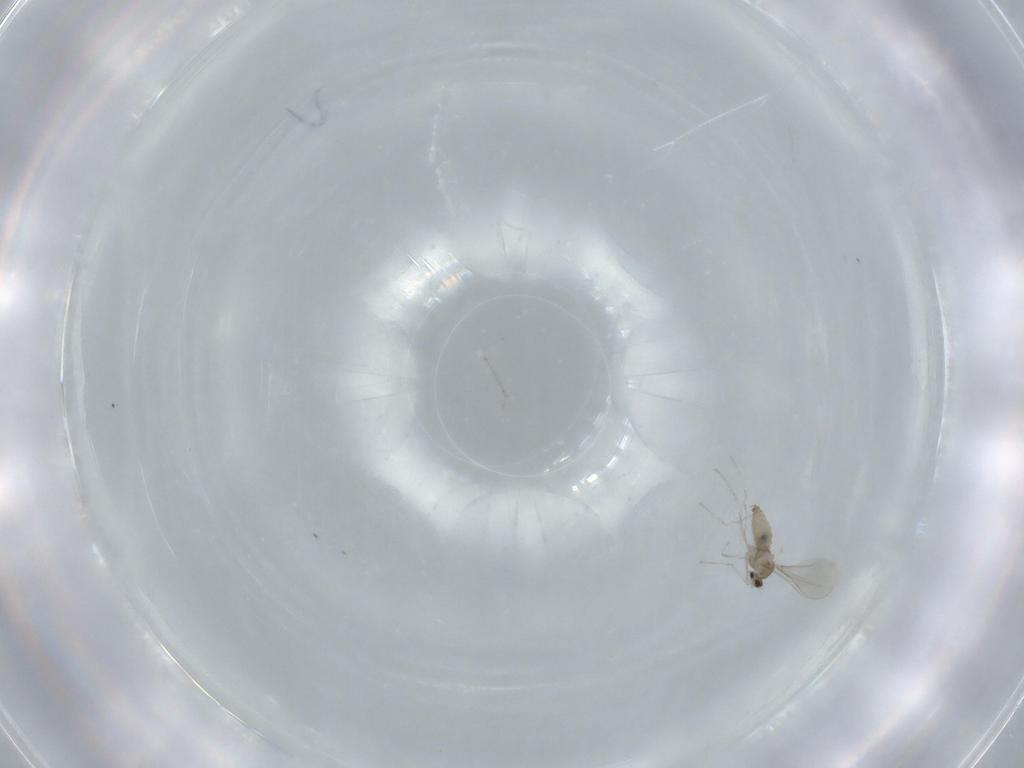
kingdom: Animalia
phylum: Arthropoda
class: Insecta
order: Diptera
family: Cecidomyiidae
